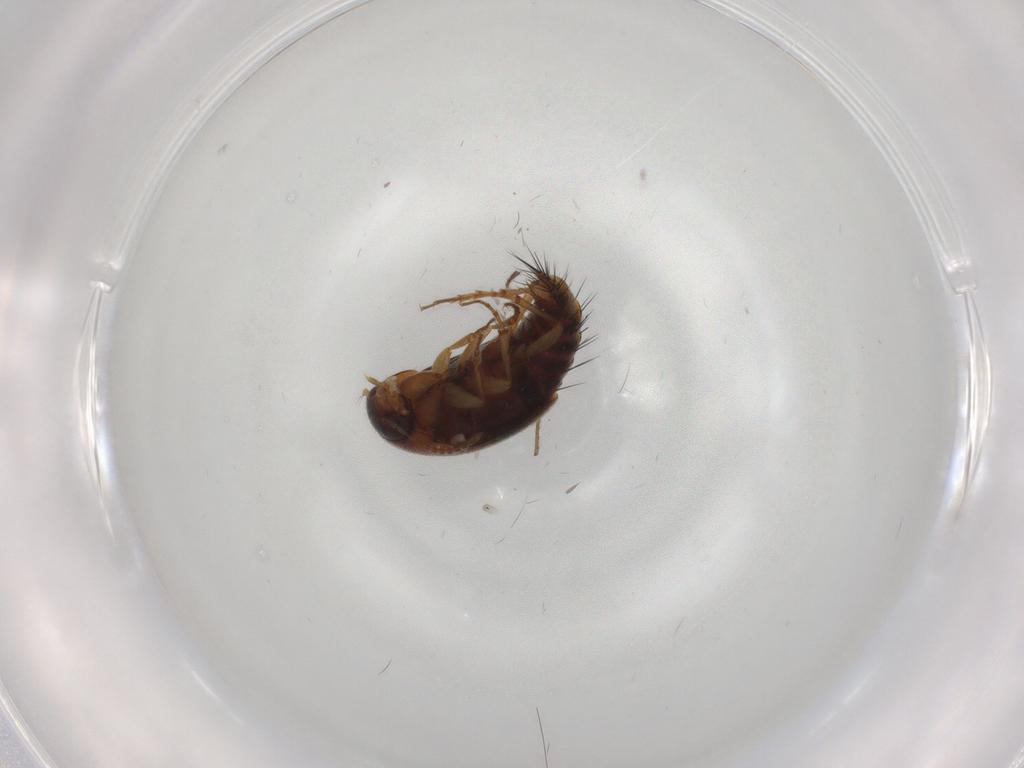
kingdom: Animalia
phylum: Arthropoda
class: Insecta
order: Coleoptera
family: Staphylinidae
